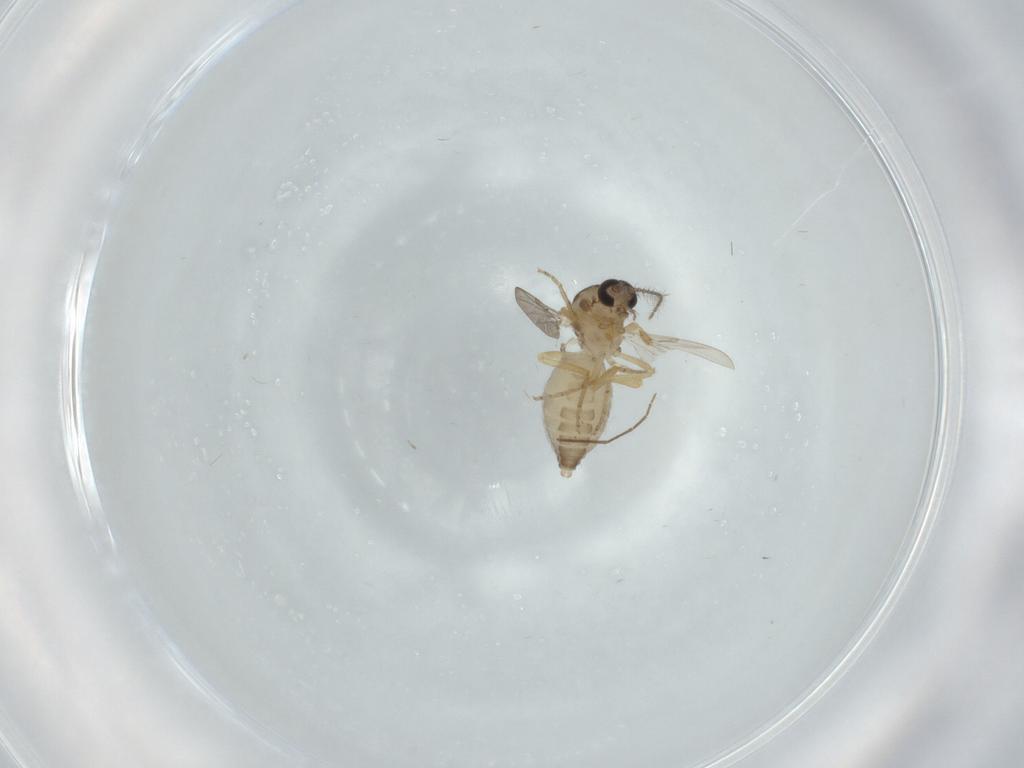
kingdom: Animalia
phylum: Arthropoda
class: Insecta
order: Diptera
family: Ceratopogonidae
